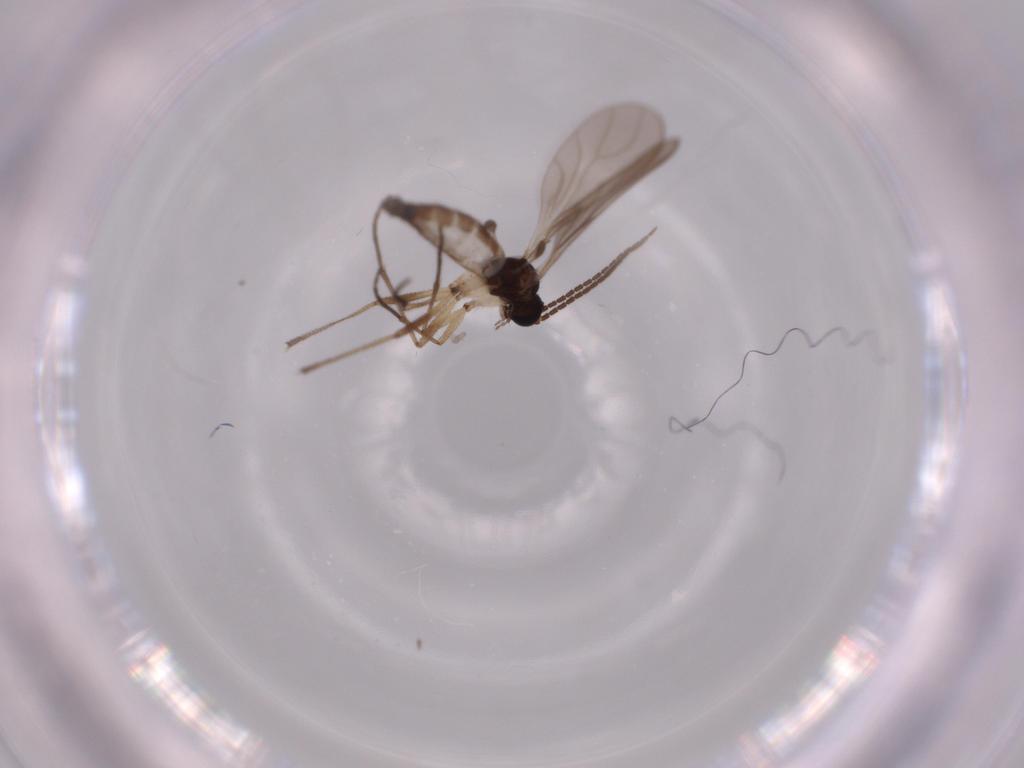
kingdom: Animalia
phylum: Arthropoda
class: Insecta
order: Diptera
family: Sciaridae
